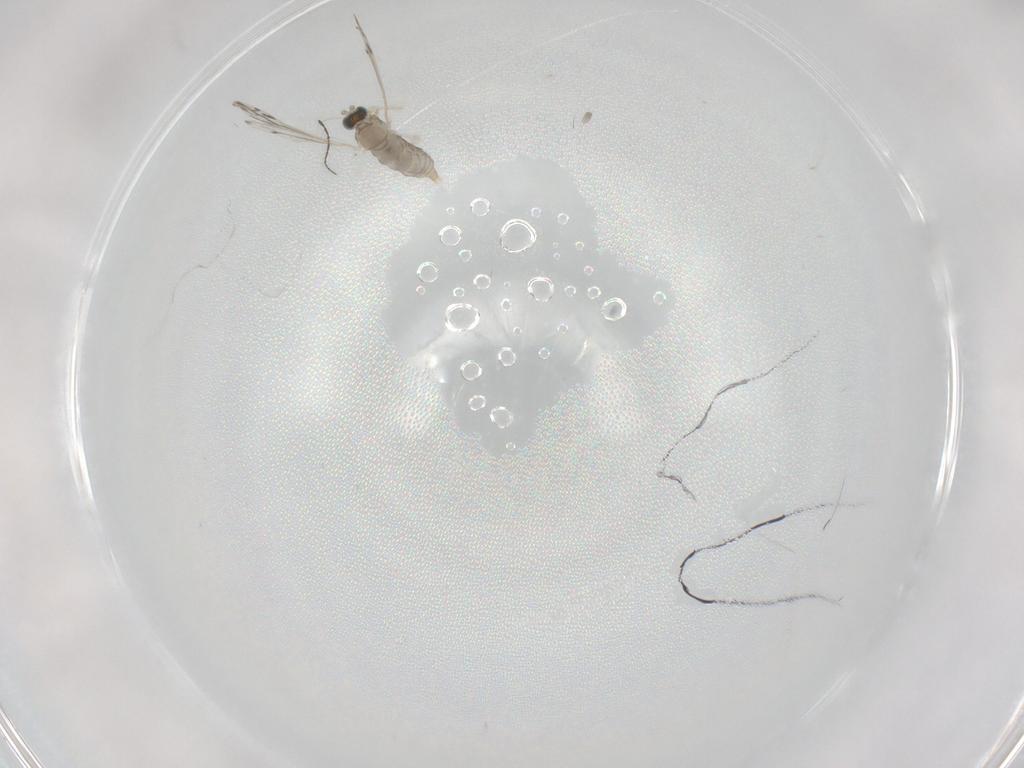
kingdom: Animalia
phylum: Arthropoda
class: Insecta
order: Diptera
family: Cecidomyiidae
